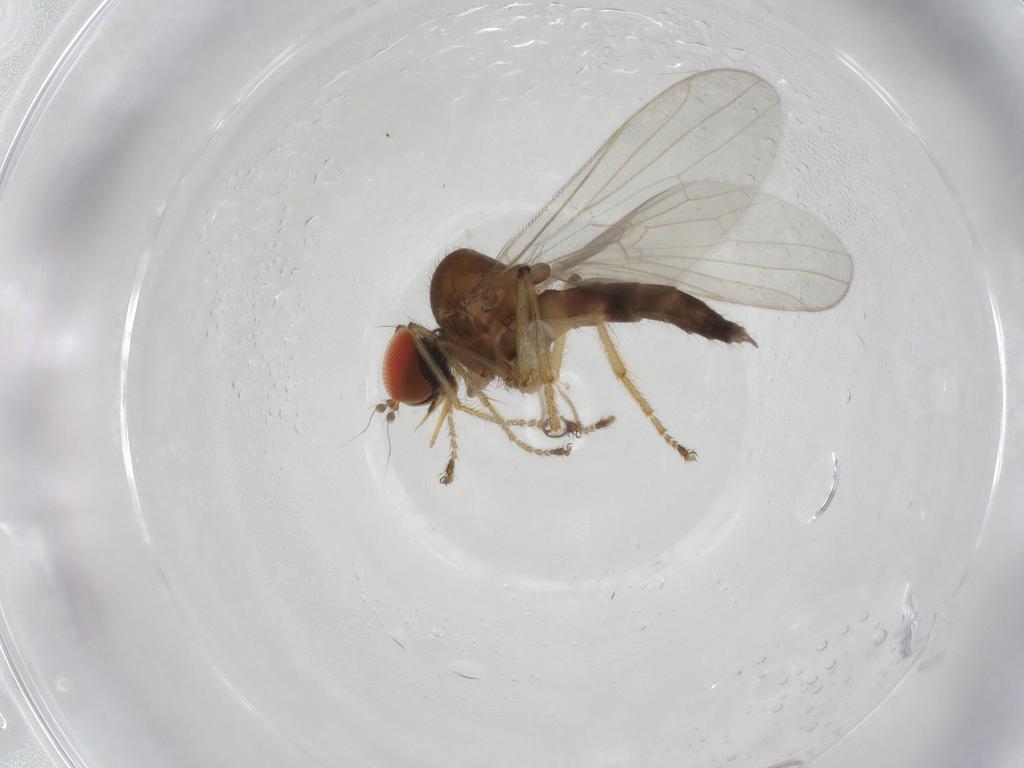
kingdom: Animalia
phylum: Arthropoda
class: Insecta
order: Diptera
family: Hybotidae
